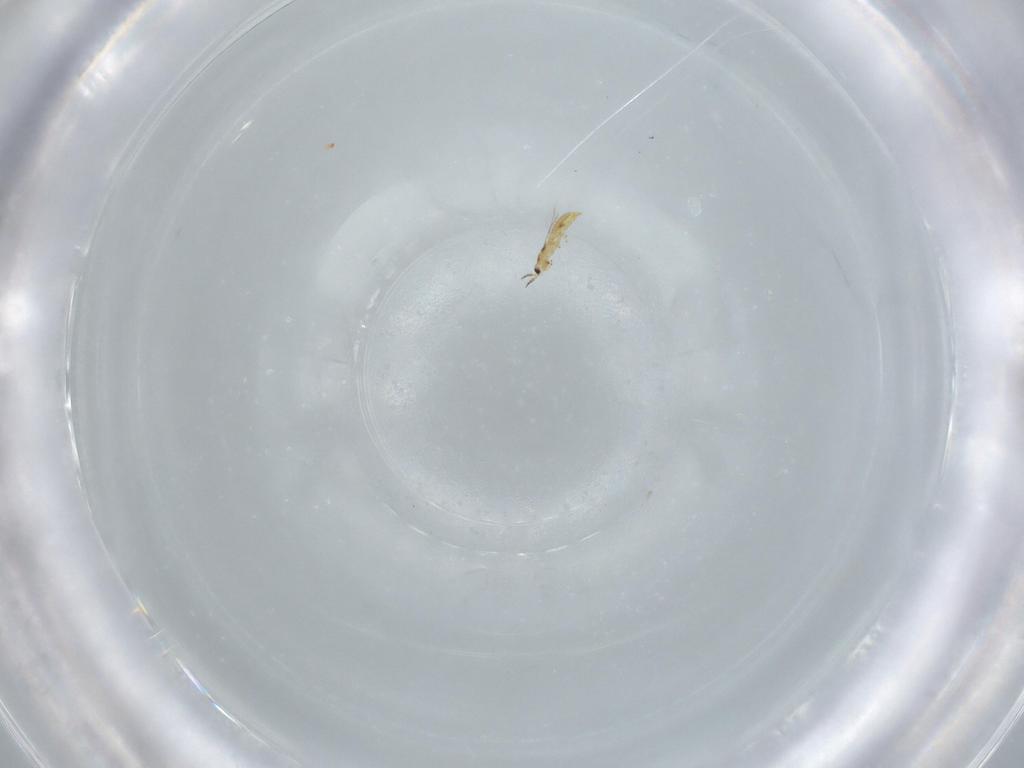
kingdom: Animalia
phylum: Arthropoda
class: Insecta
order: Thysanoptera
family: Phlaeothripidae
